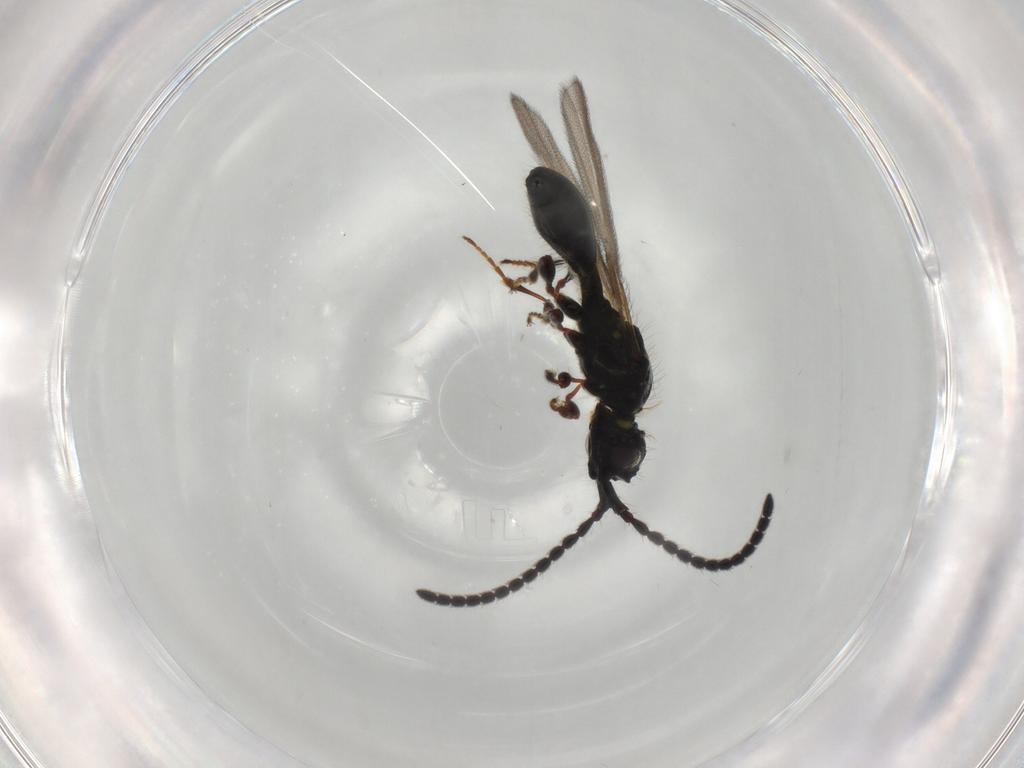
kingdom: Animalia
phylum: Arthropoda
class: Insecta
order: Hymenoptera
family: Diapriidae
